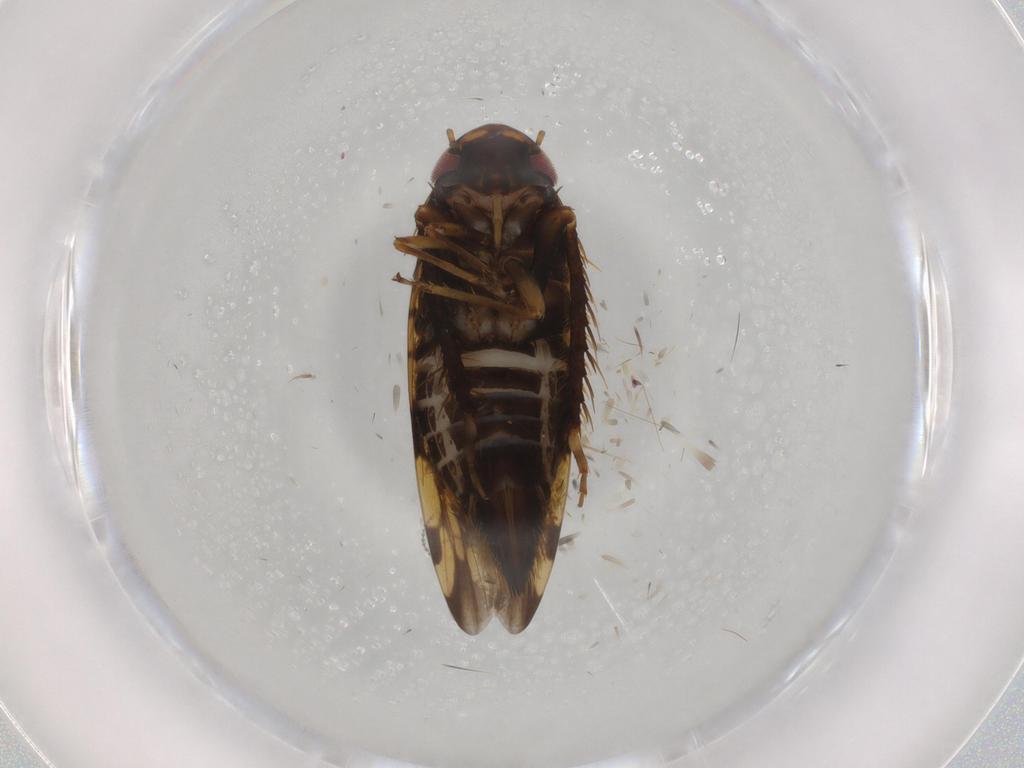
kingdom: Animalia
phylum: Arthropoda
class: Insecta
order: Hemiptera
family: Cicadellidae
